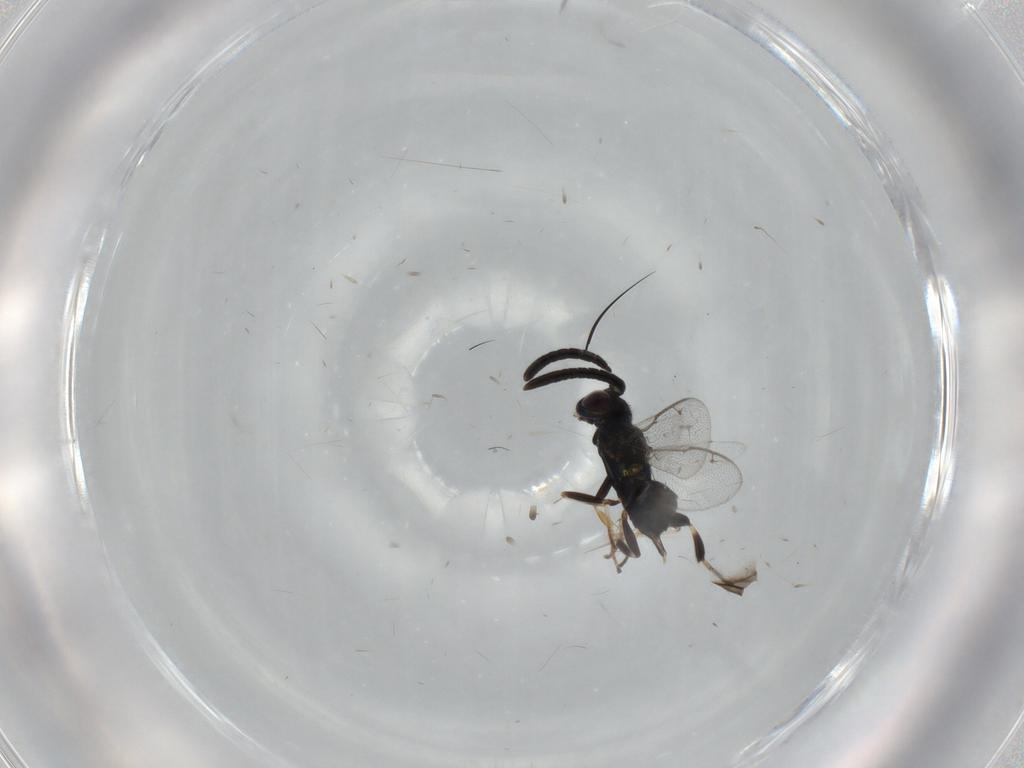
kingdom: Animalia
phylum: Arthropoda
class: Insecta
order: Hymenoptera
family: Eupelmidae
